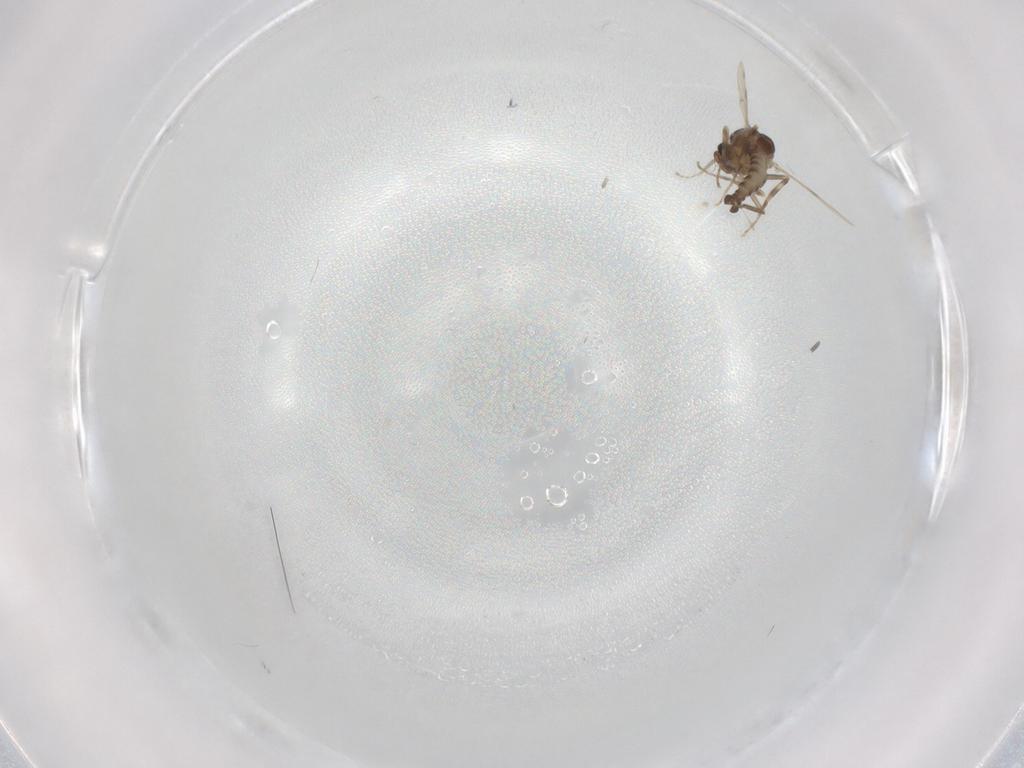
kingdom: Animalia
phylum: Arthropoda
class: Insecta
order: Diptera
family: Ceratopogonidae
